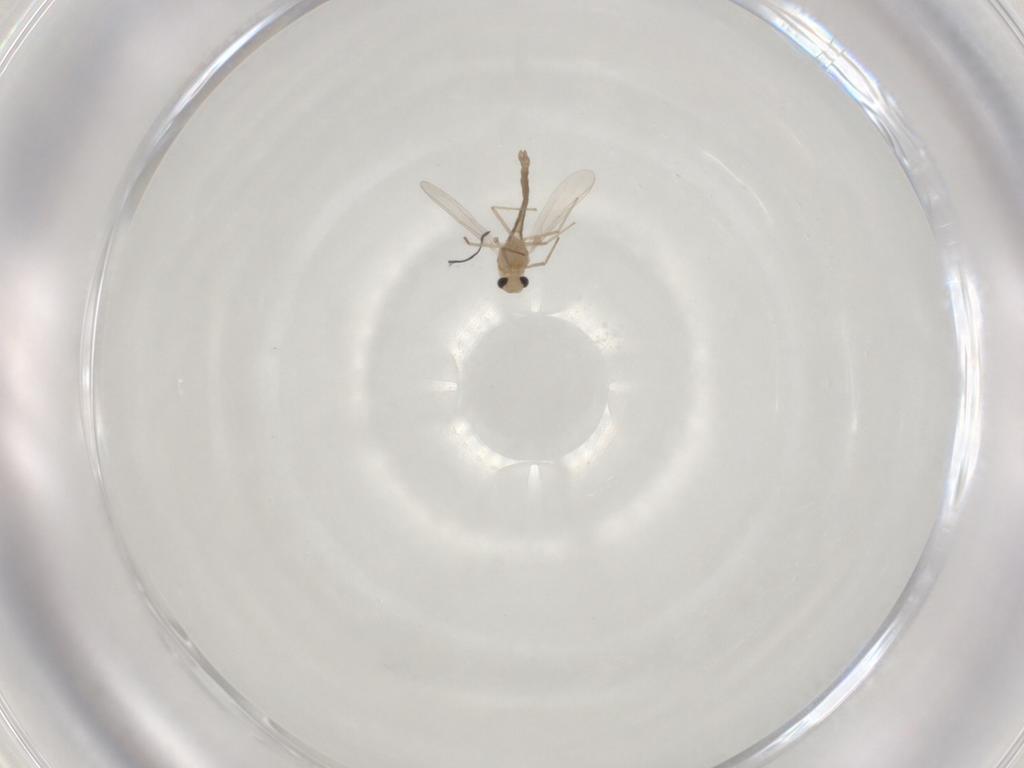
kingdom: Animalia
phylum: Arthropoda
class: Insecta
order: Diptera
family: Chironomidae
